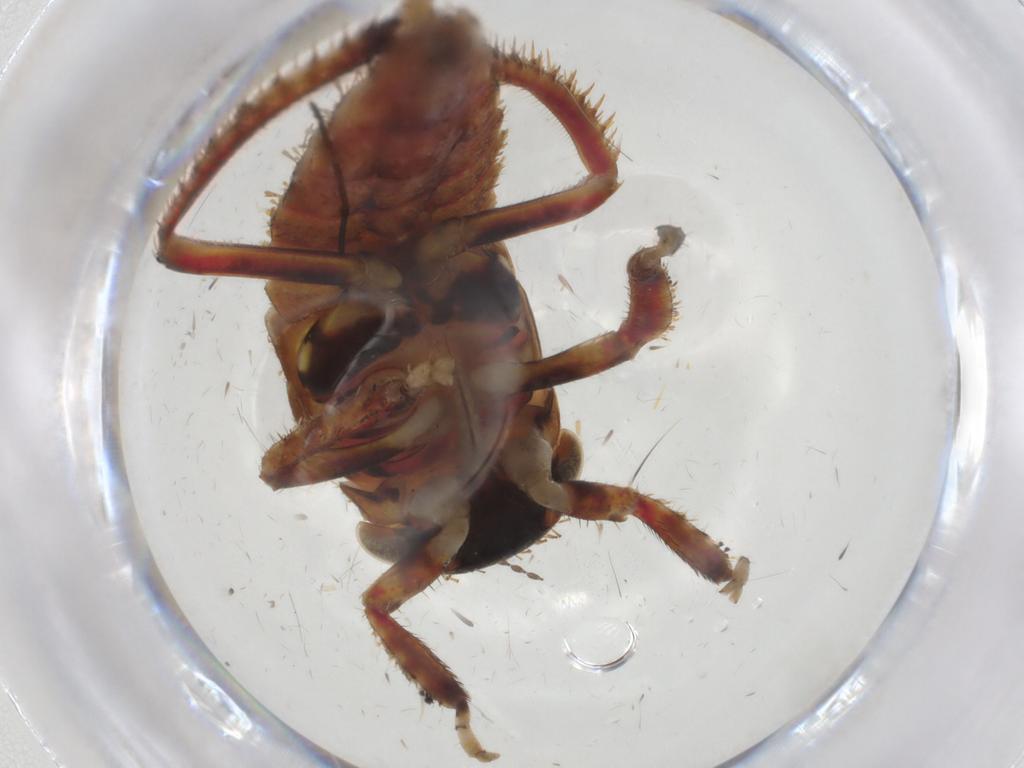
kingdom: Animalia
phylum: Arthropoda
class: Insecta
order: Hemiptera
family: Cicadellidae
